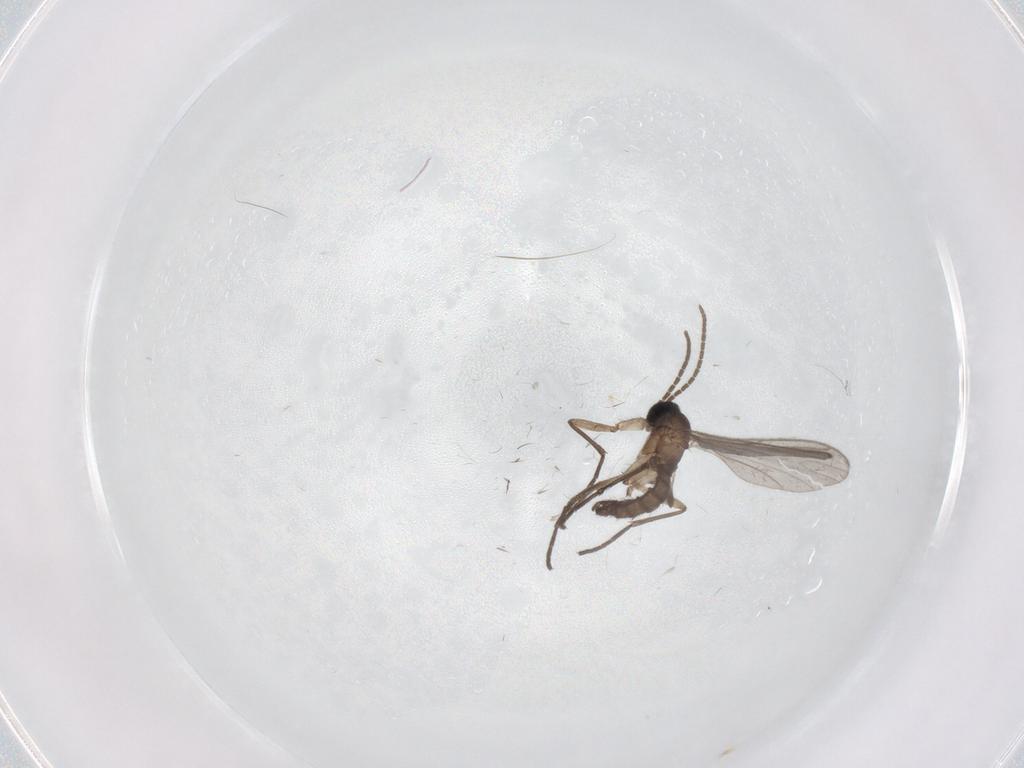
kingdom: Animalia
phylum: Arthropoda
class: Insecta
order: Diptera
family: Sciaridae
